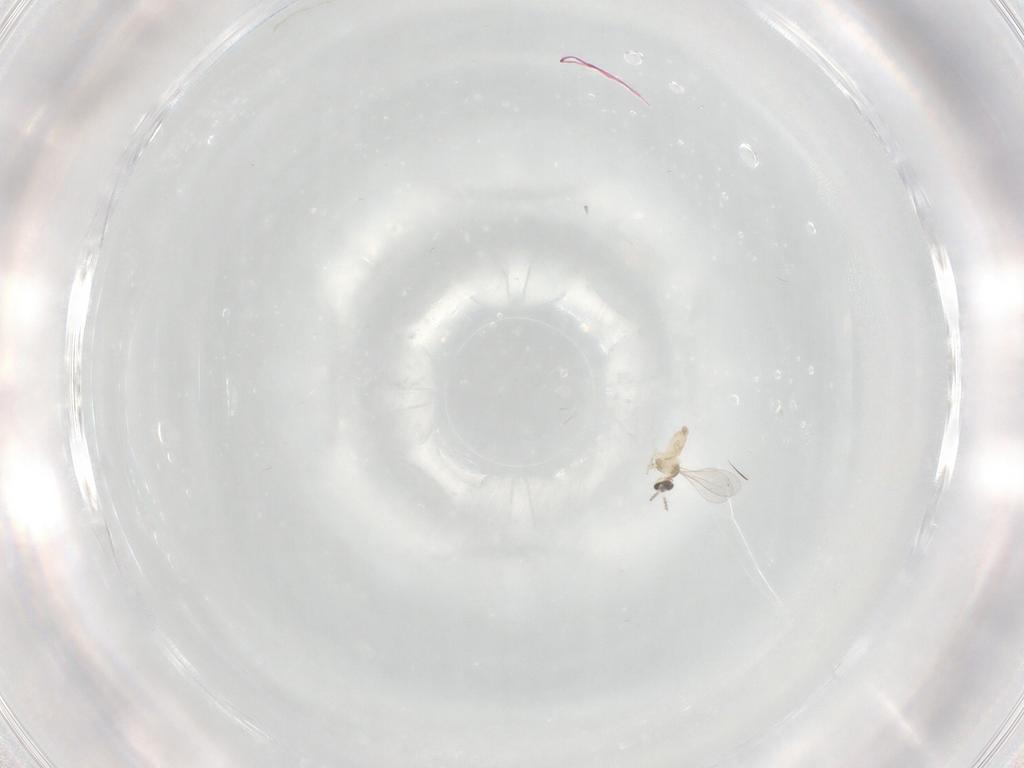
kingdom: Animalia
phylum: Arthropoda
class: Insecta
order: Diptera
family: Cecidomyiidae
